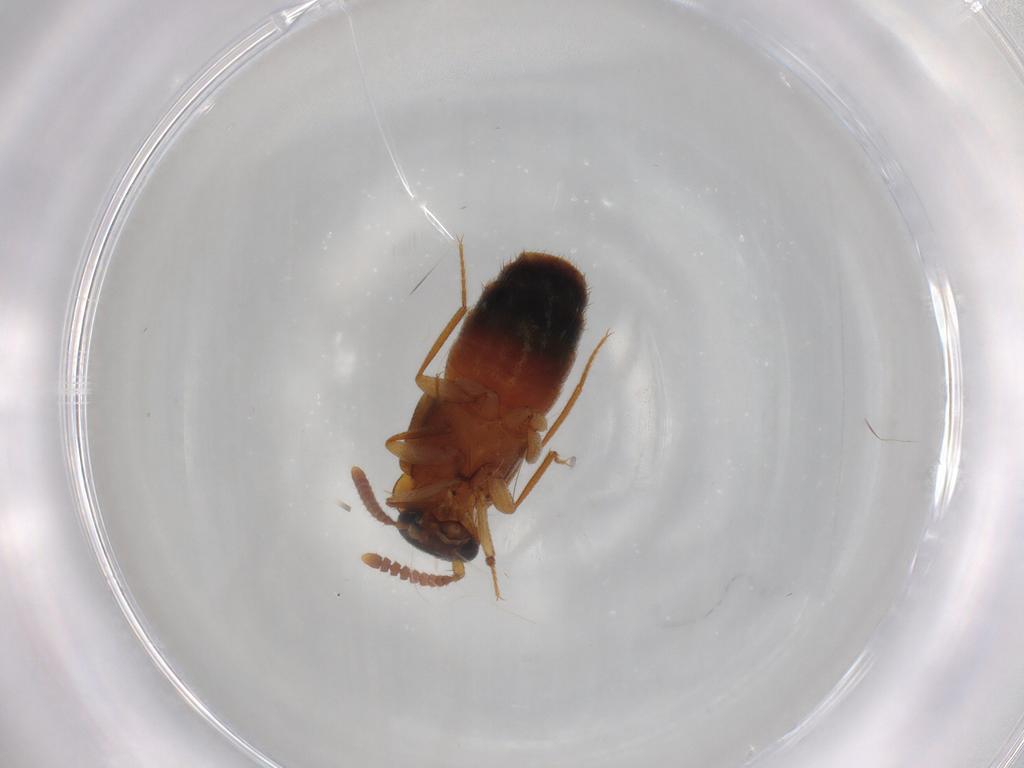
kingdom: Animalia
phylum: Arthropoda
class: Insecta
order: Coleoptera
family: Staphylinidae
